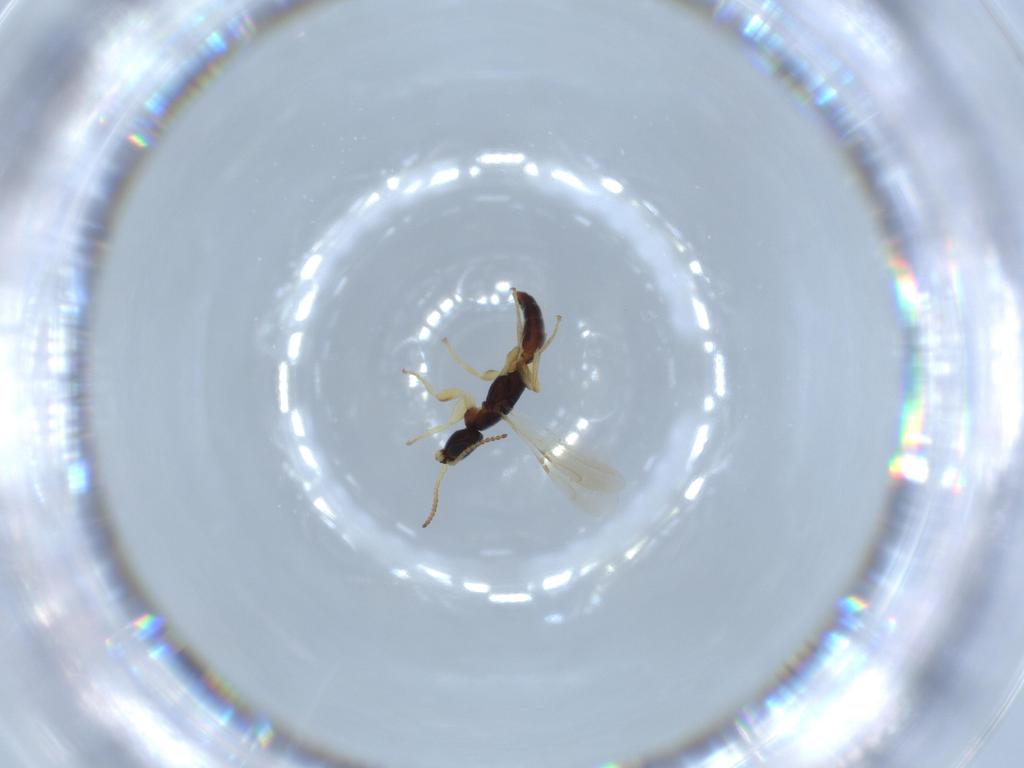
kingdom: Animalia
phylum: Arthropoda
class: Insecta
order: Hymenoptera
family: Bethylidae
